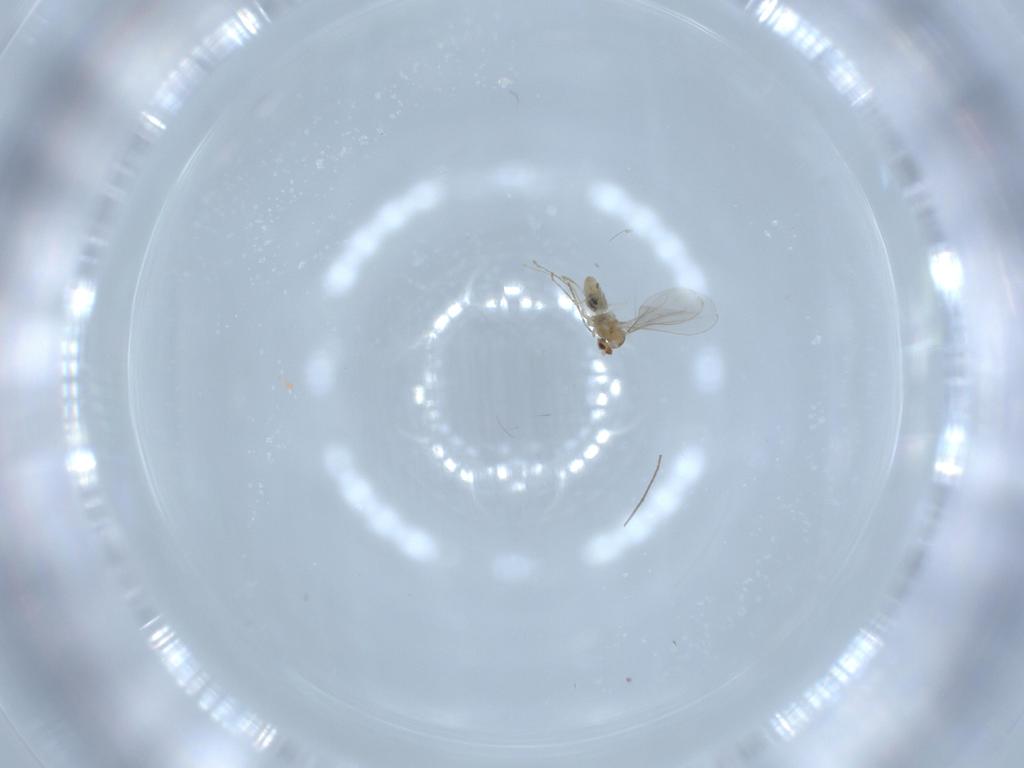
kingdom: Animalia
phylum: Arthropoda
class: Insecta
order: Diptera
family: Cecidomyiidae
